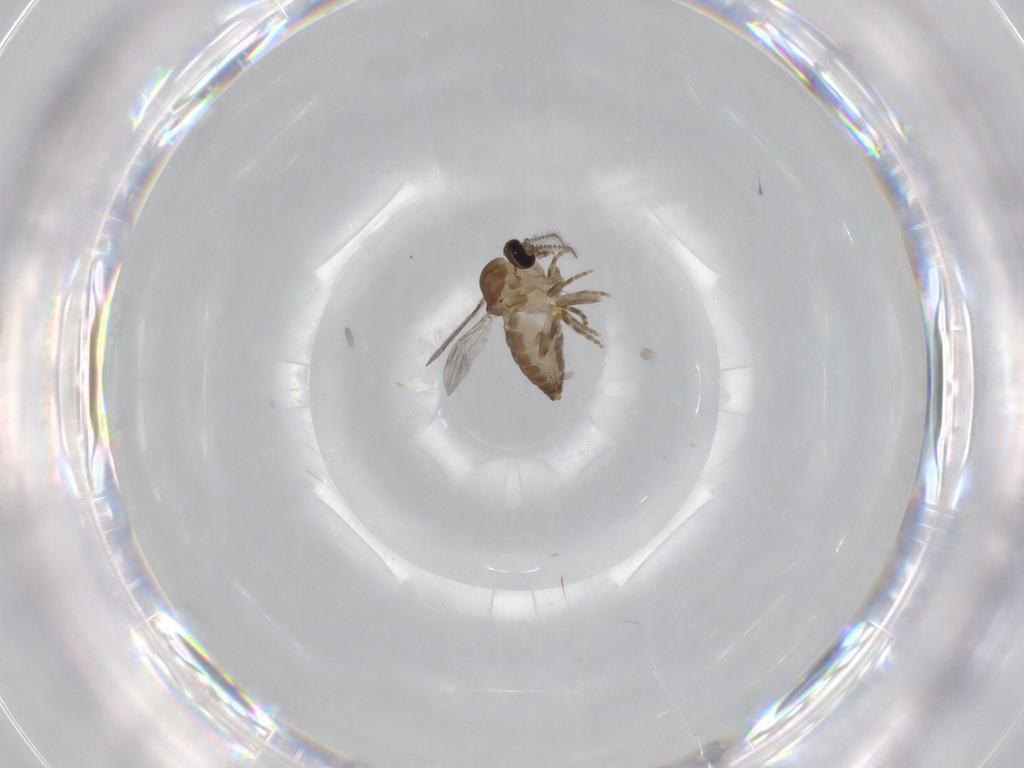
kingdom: Animalia
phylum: Arthropoda
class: Insecta
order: Diptera
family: Ceratopogonidae
